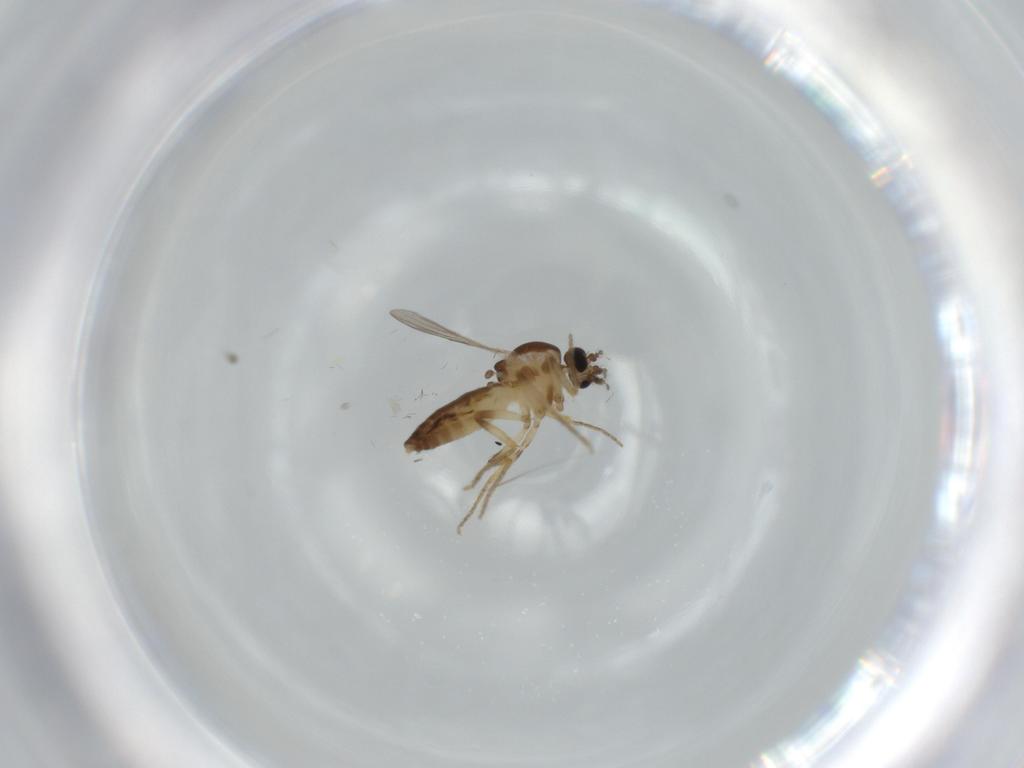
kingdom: Animalia
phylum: Arthropoda
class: Insecta
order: Diptera
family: Ceratopogonidae
